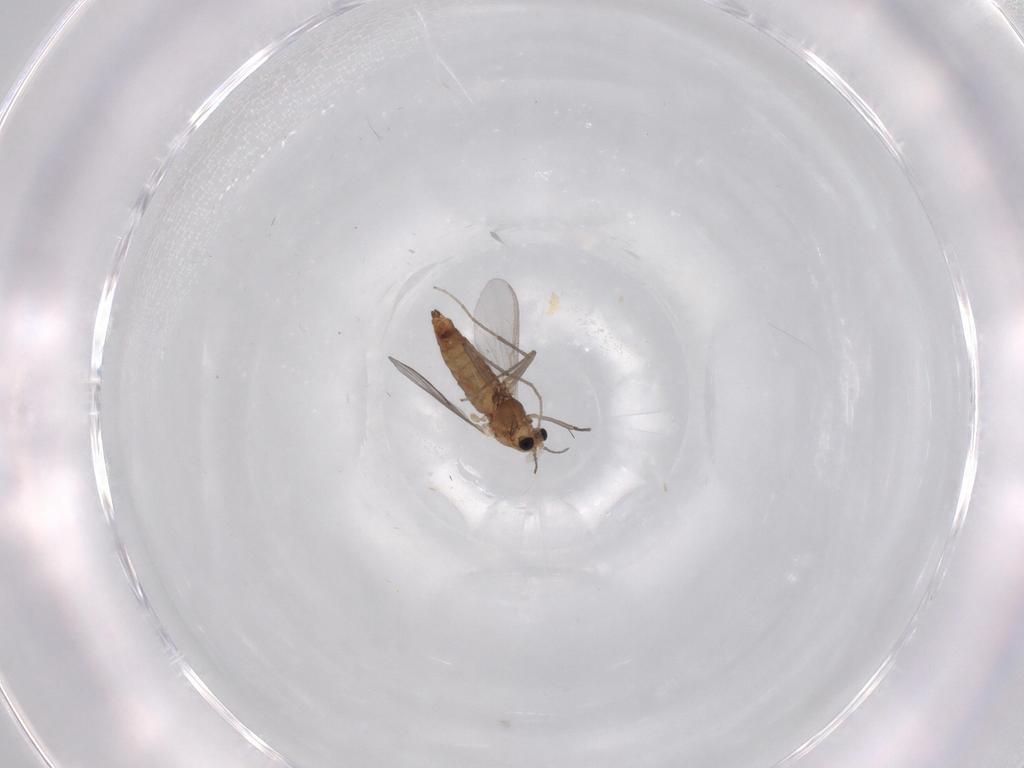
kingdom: Animalia
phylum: Arthropoda
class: Insecta
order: Diptera
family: Chironomidae
